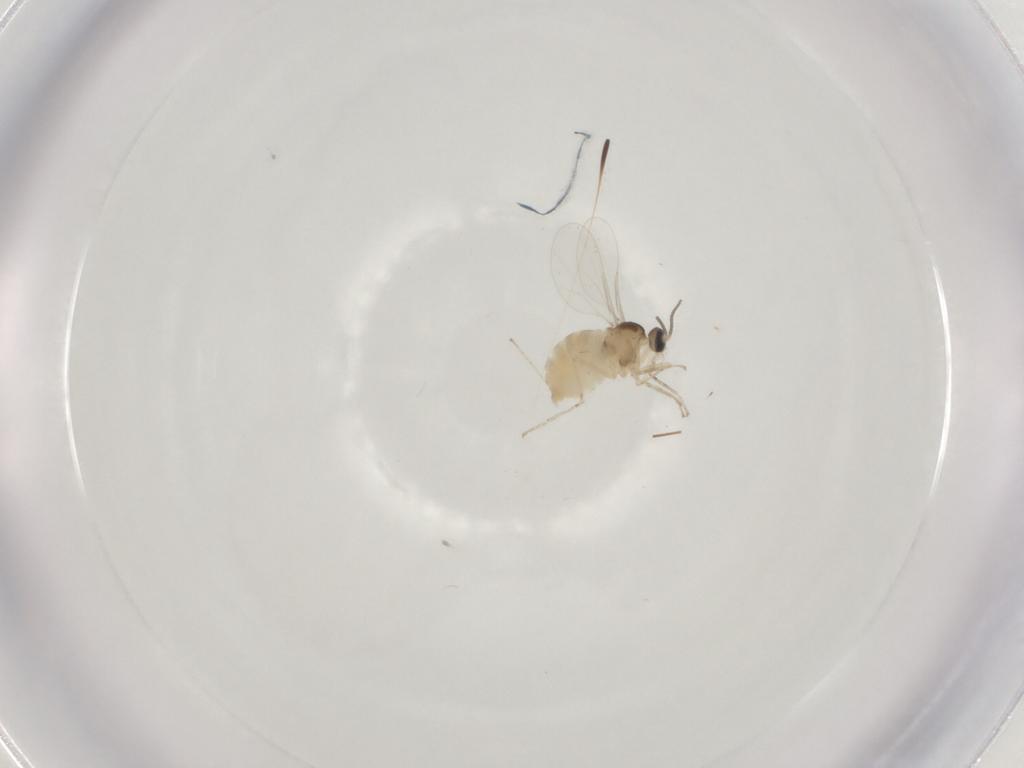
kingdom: Animalia
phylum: Arthropoda
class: Insecta
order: Diptera
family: Cecidomyiidae
